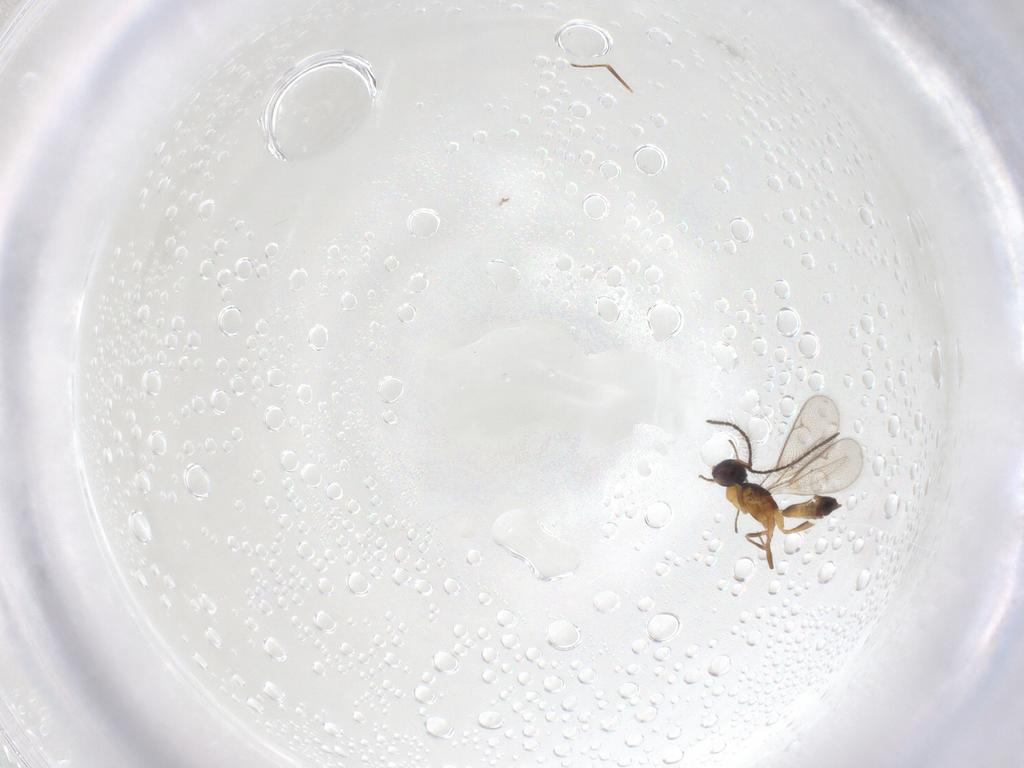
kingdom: Animalia
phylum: Arthropoda
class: Insecta
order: Hymenoptera
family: Eupelmidae
